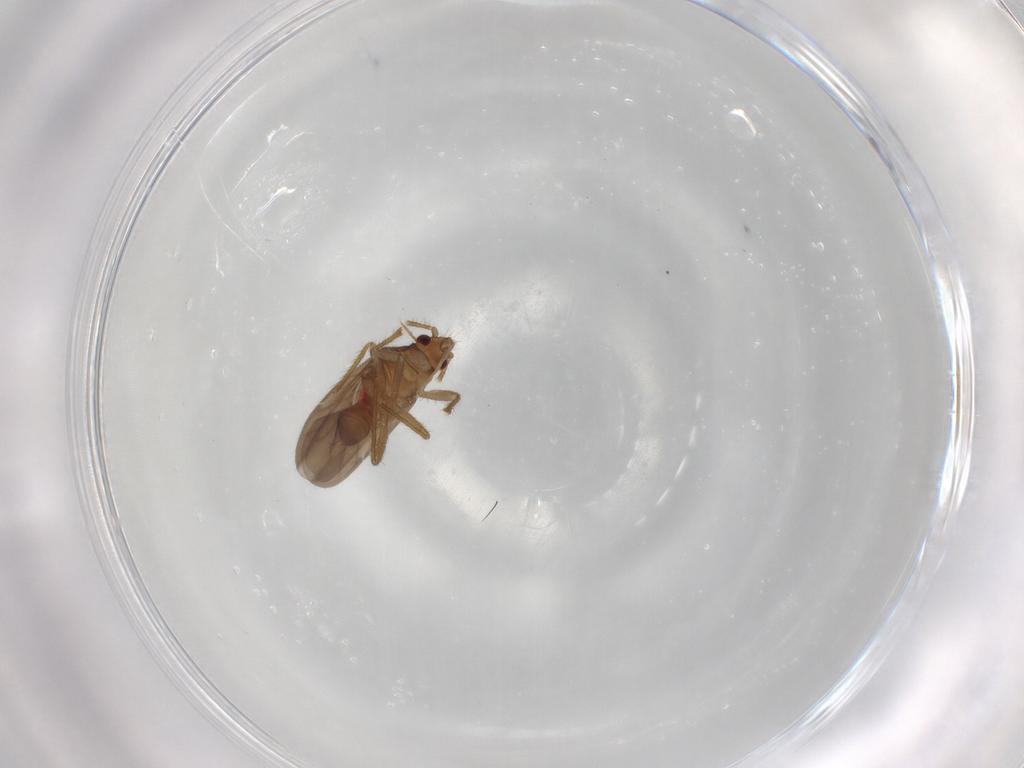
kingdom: Animalia
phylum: Arthropoda
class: Insecta
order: Hemiptera
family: Ceratocombidae
